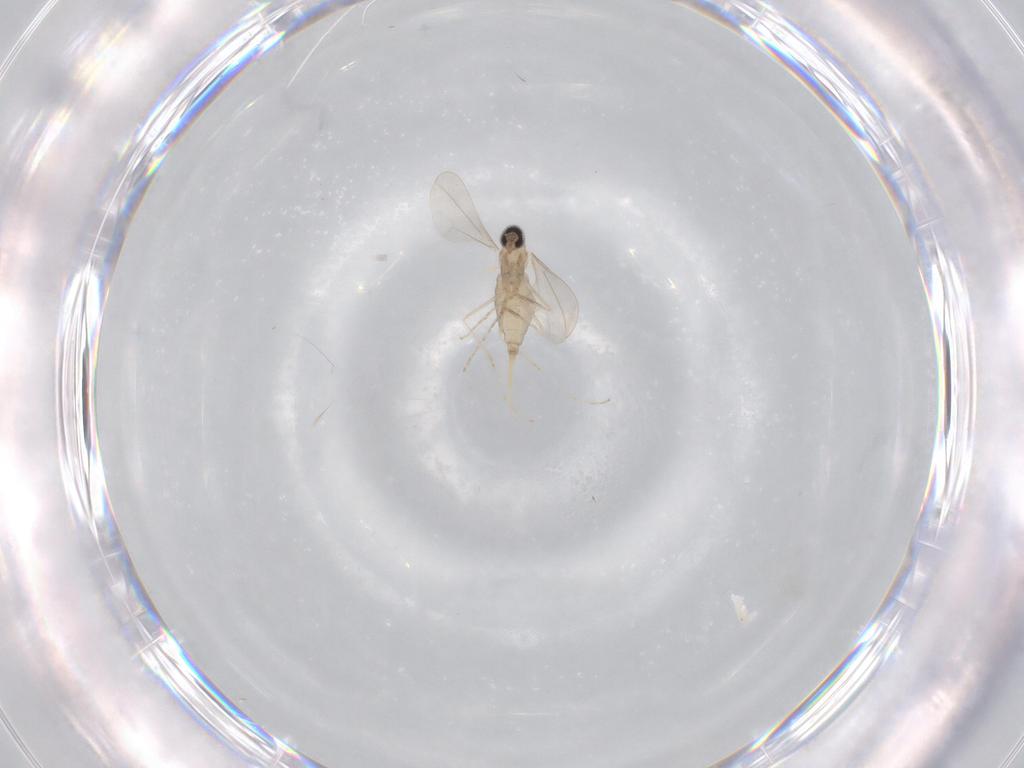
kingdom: Animalia
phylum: Arthropoda
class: Insecta
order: Diptera
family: Cecidomyiidae
